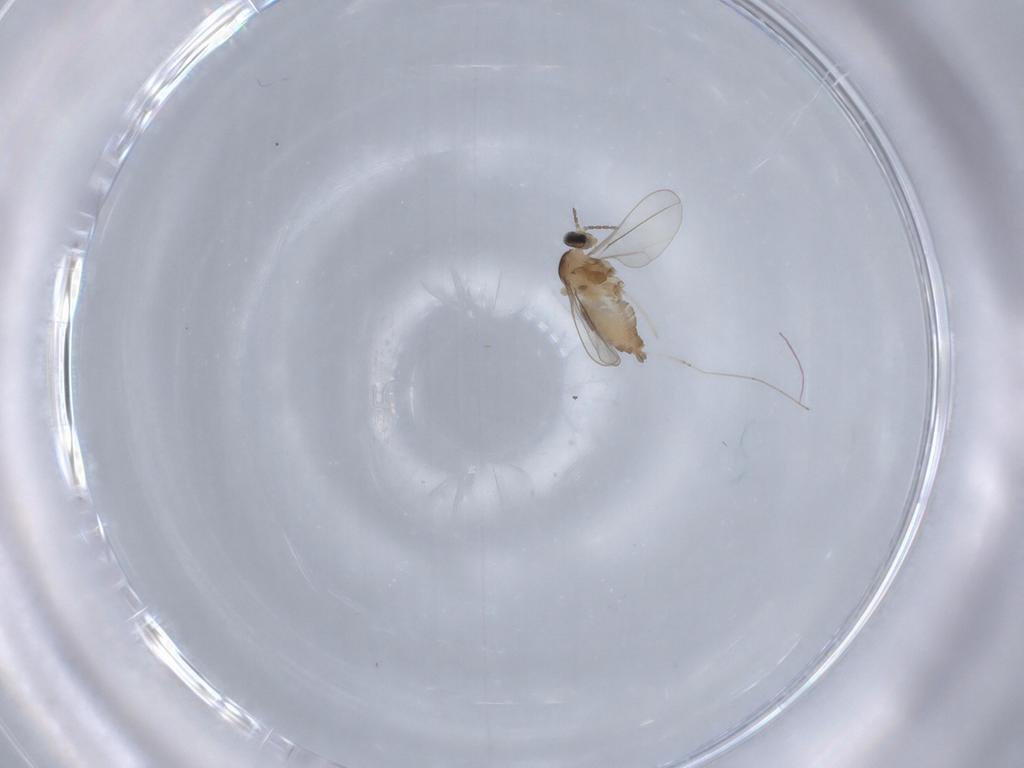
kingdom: Animalia
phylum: Arthropoda
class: Insecta
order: Diptera
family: Cecidomyiidae
